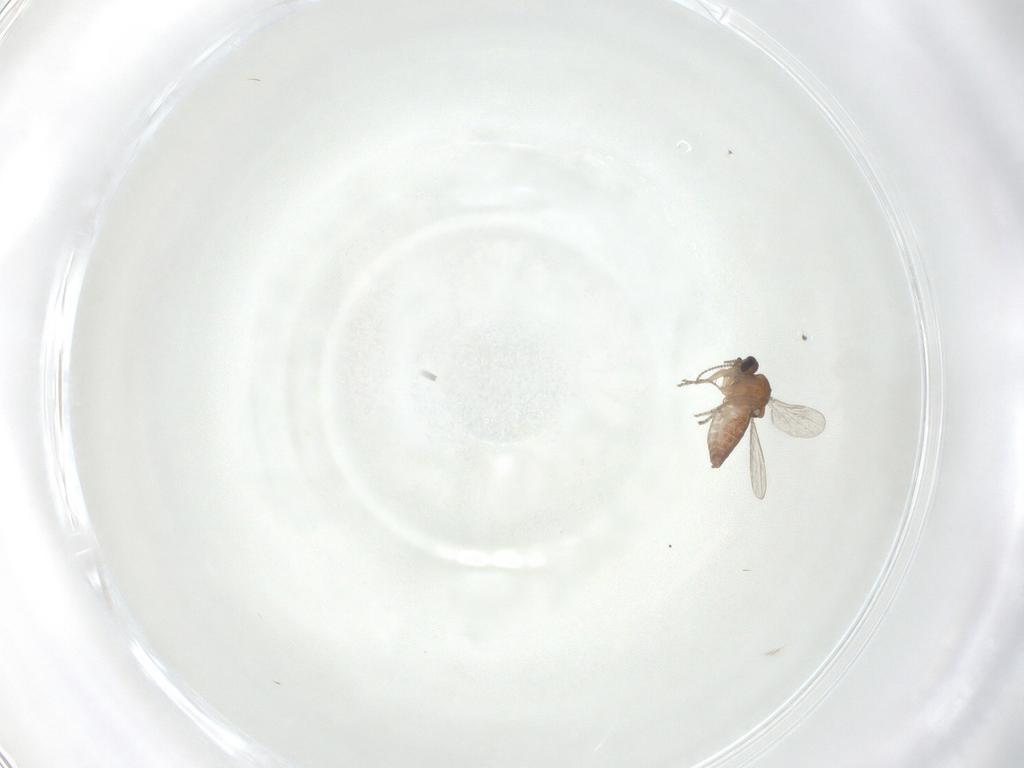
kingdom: Animalia
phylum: Arthropoda
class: Insecta
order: Diptera
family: Ceratopogonidae
